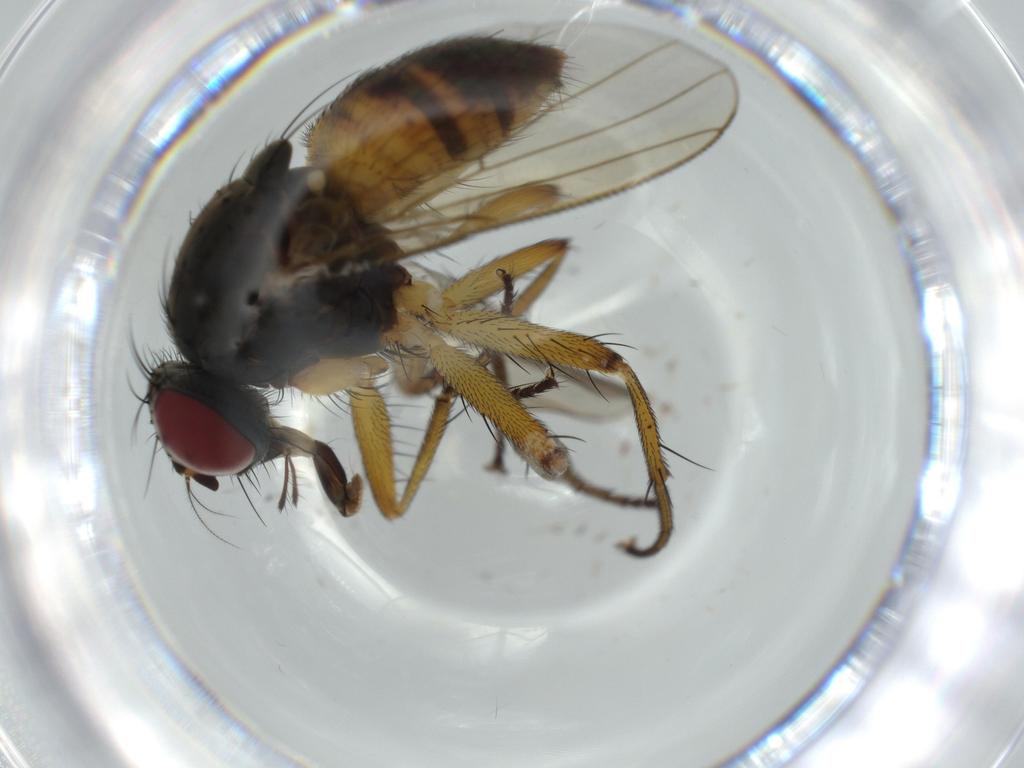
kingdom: Animalia
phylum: Arthropoda
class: Insecta
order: Diptera
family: Muscidae
